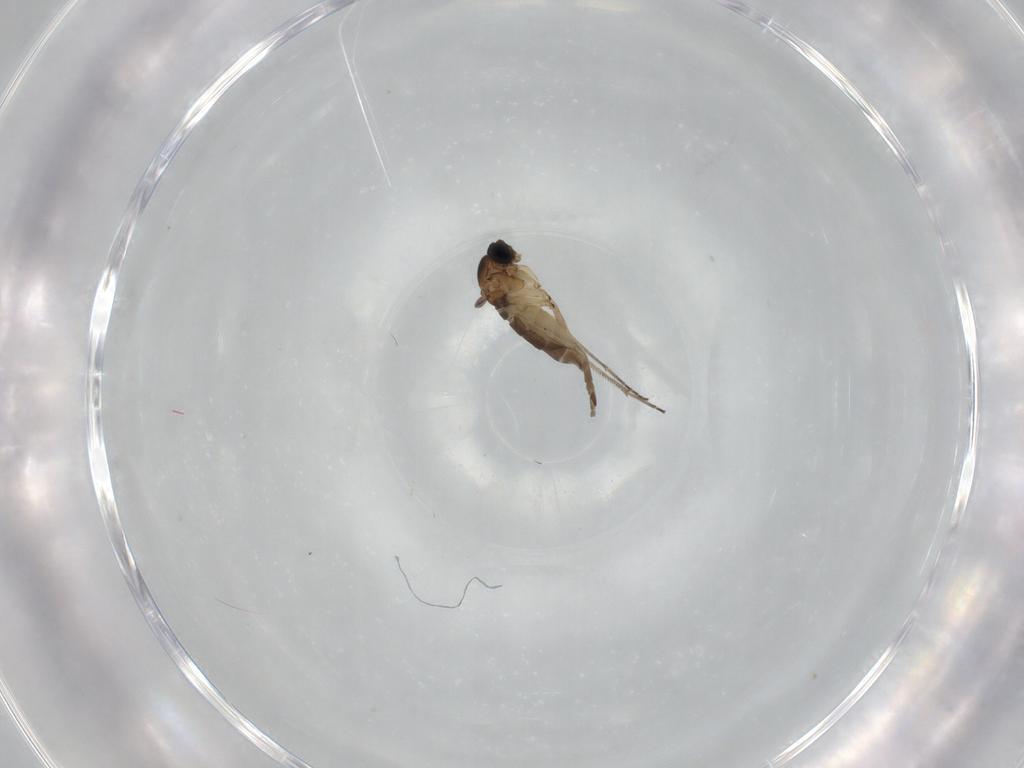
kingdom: Animalia
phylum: Arthropoda
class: Insecta
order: Diptera
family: Sciaridae
